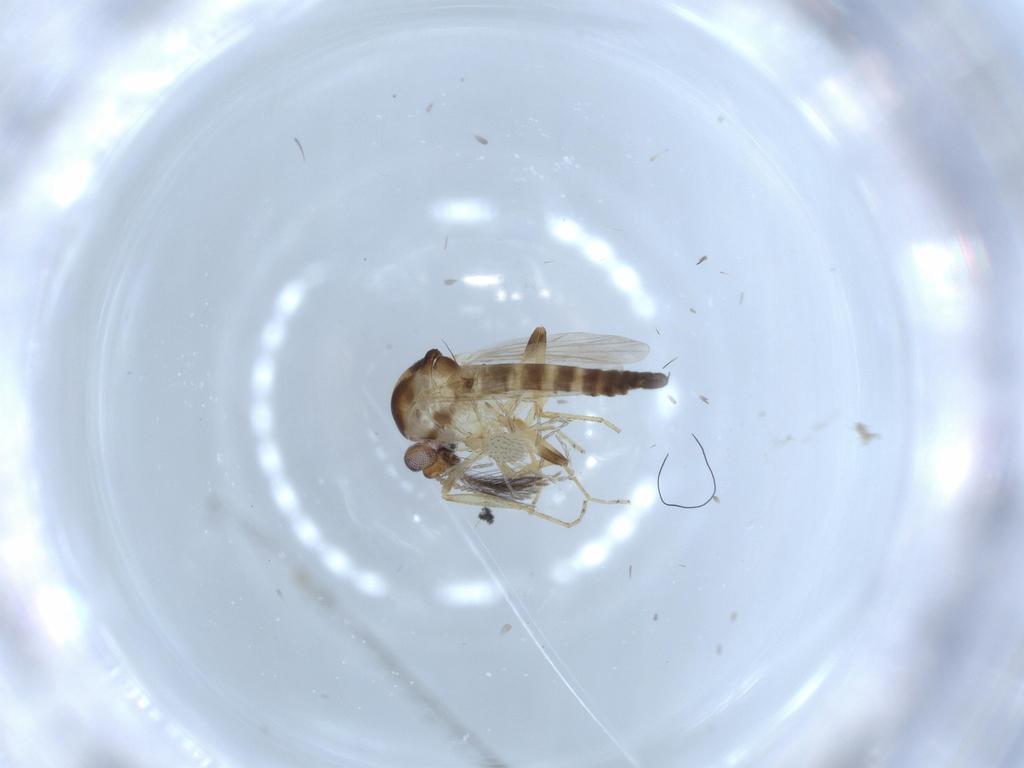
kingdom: Animalia
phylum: Arthropoda
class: Insecta
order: Diptera
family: Ceratopogonidae
